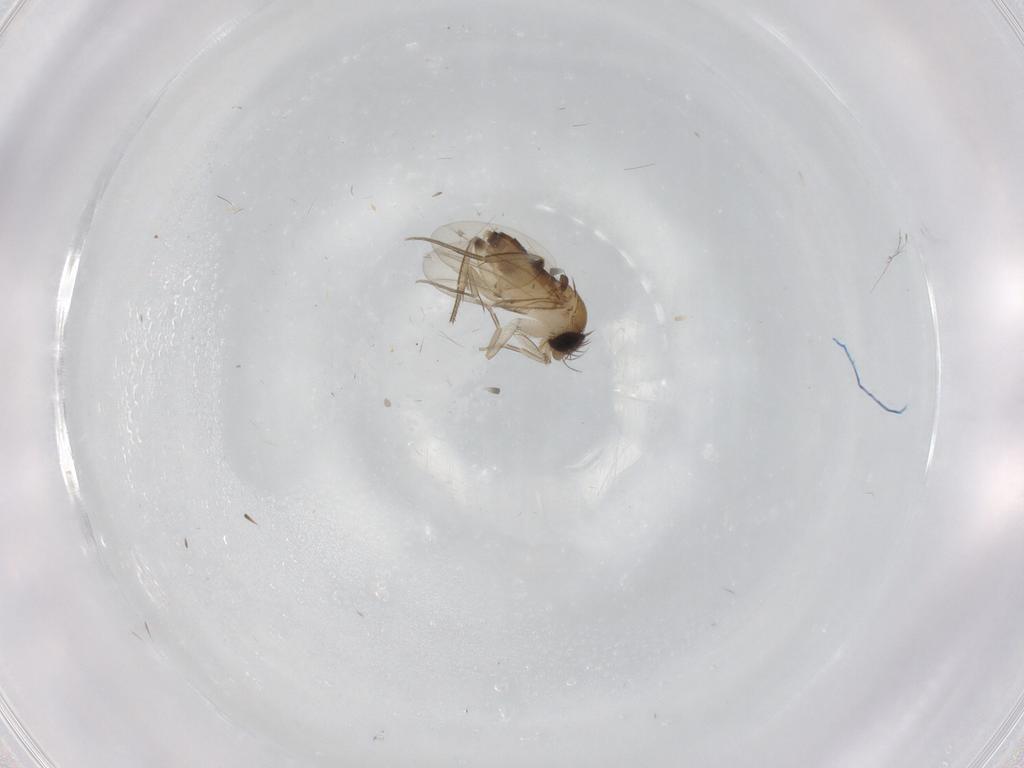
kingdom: Animalia
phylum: Arthropoda
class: Insecta
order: Diptera
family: Phoridae
